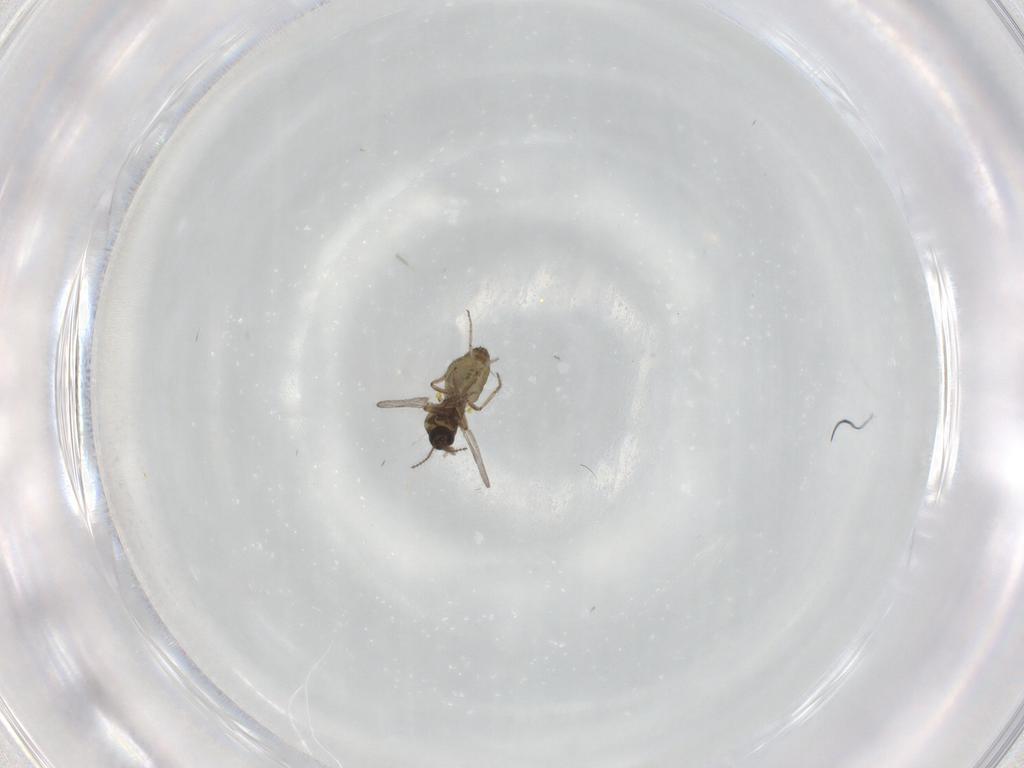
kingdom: Animalia
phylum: Arthropoda
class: Insecta
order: Diptera
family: Ceratopogonidae
